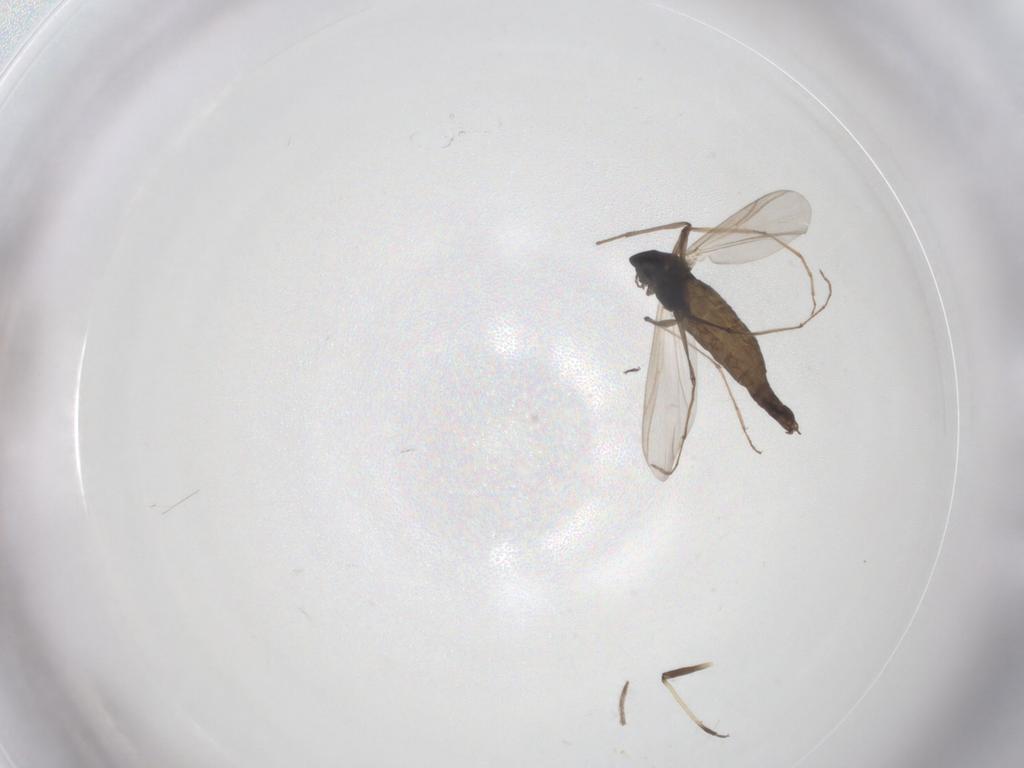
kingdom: Animalia
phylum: Arthropoda
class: Insecta
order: Diptera
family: Chironomidae
